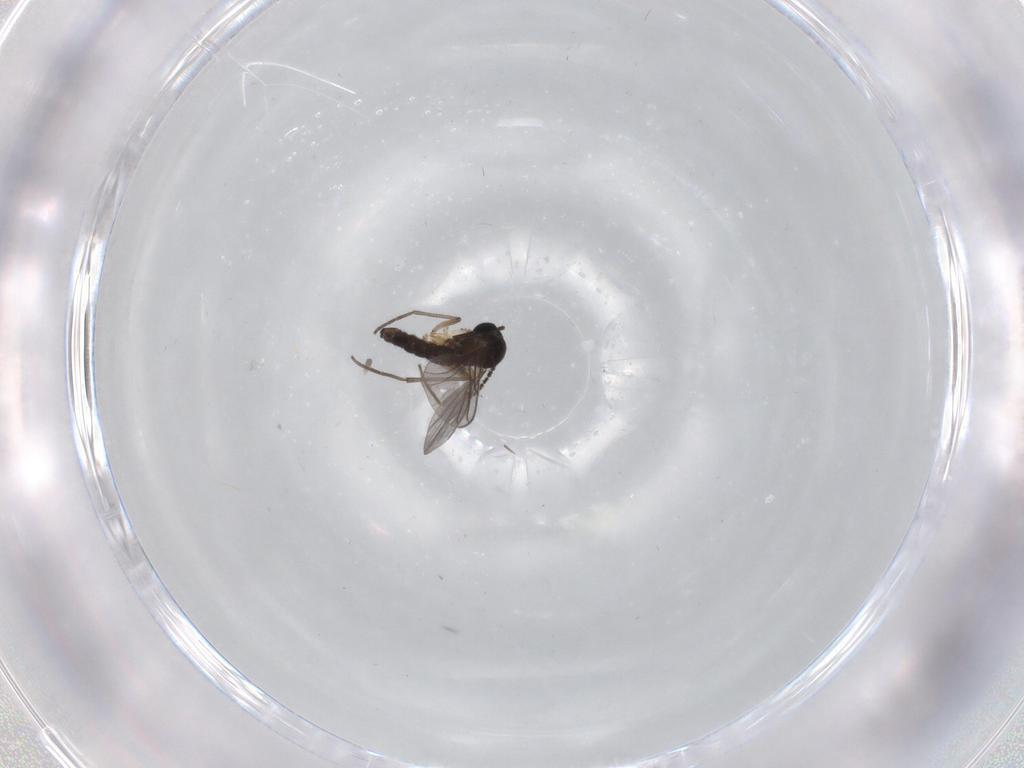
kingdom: Animalia
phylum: Arthropoda
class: Insecta
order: Diptera
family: Sciaridae
